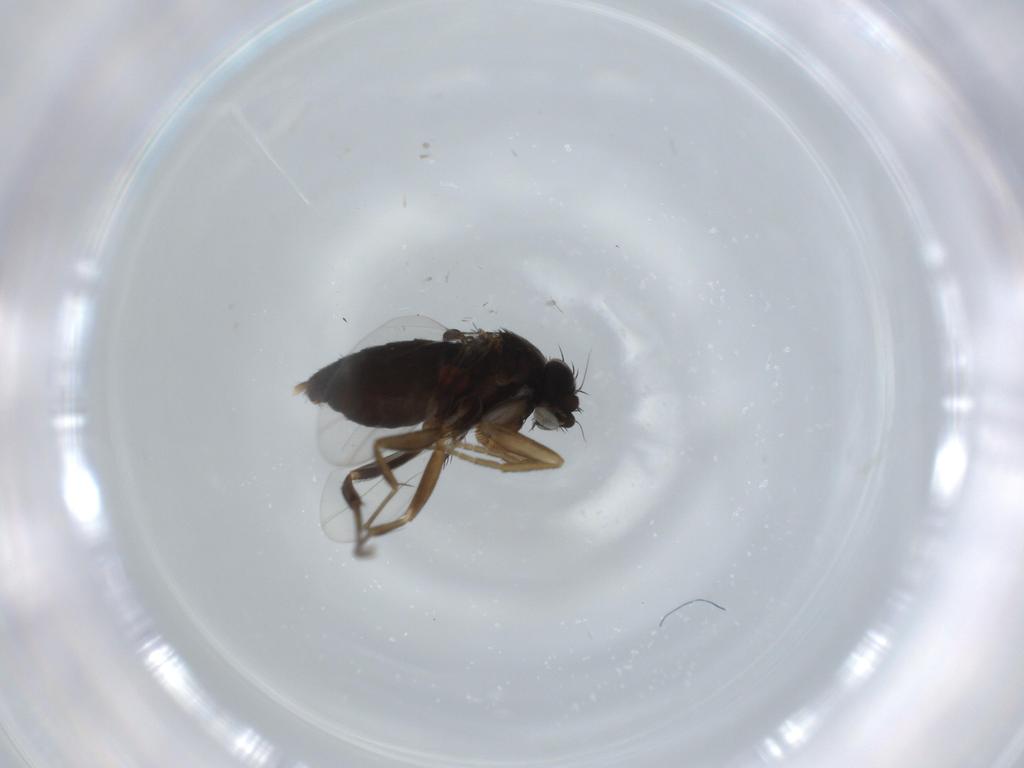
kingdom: Animalia
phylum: Arthropoda
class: Insecta
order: Diptera
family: Phoridae
